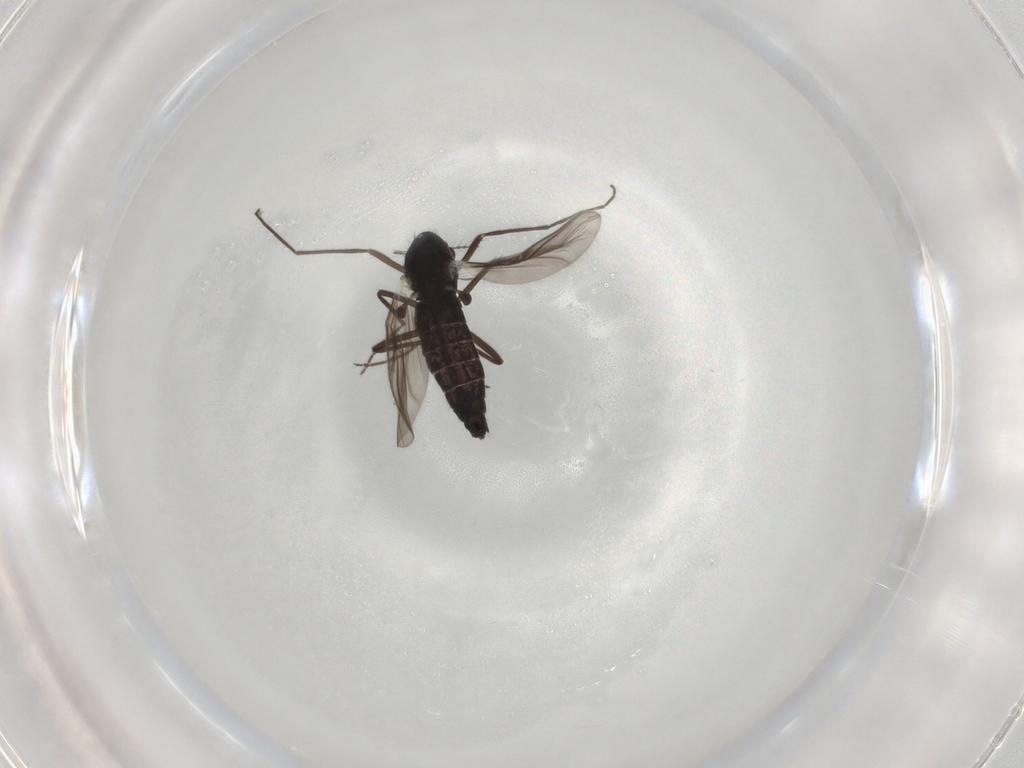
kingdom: Animalia
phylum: Arthropoda
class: Insecta
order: Diptera
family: Chironomidae
